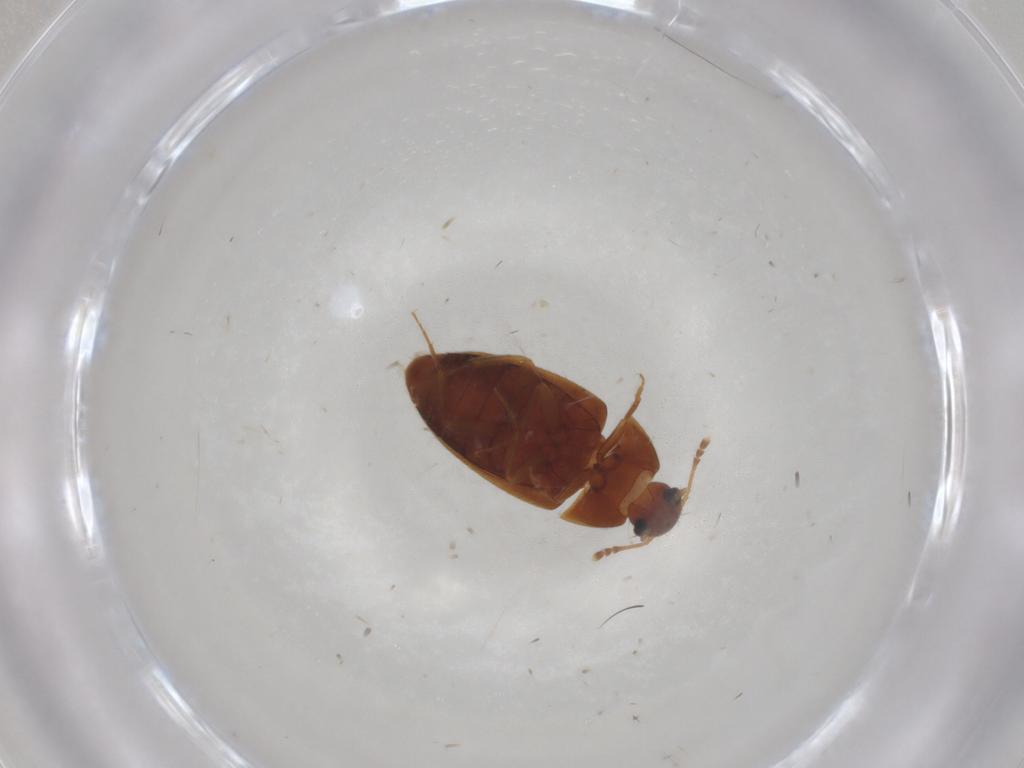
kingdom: Animalia
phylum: Arthropoda
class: Insecta
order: Coleoptera
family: Mycetophagidae
